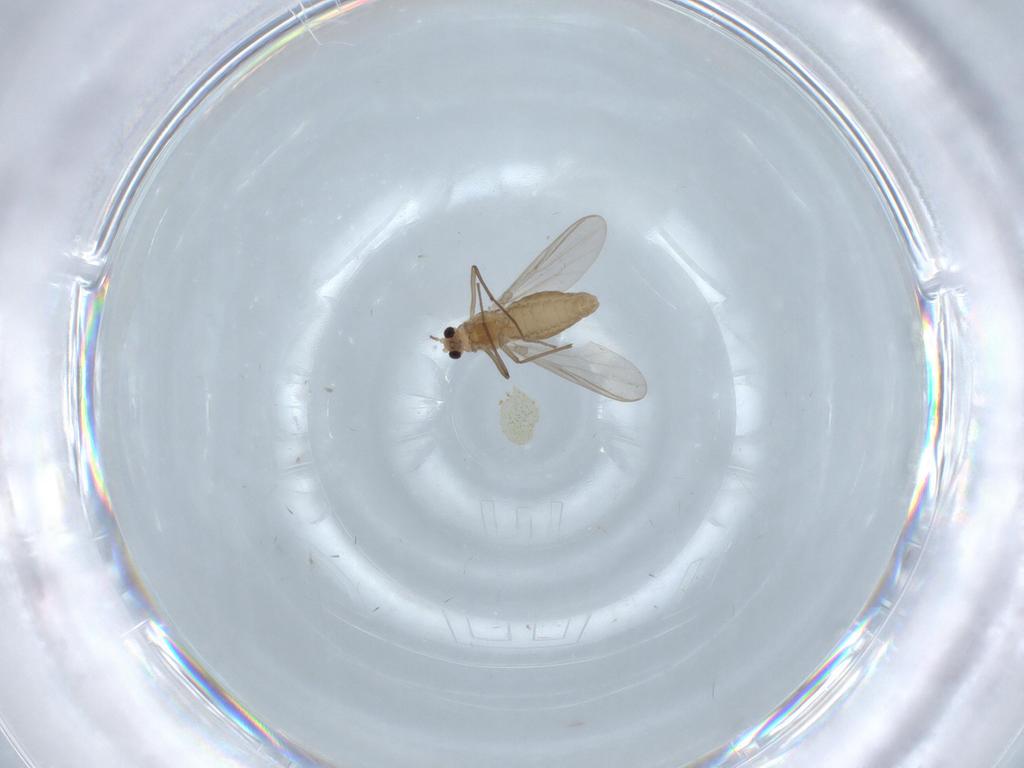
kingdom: Animalia
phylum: Arthropoda
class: Insecta
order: Diptera
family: Chironomidae
